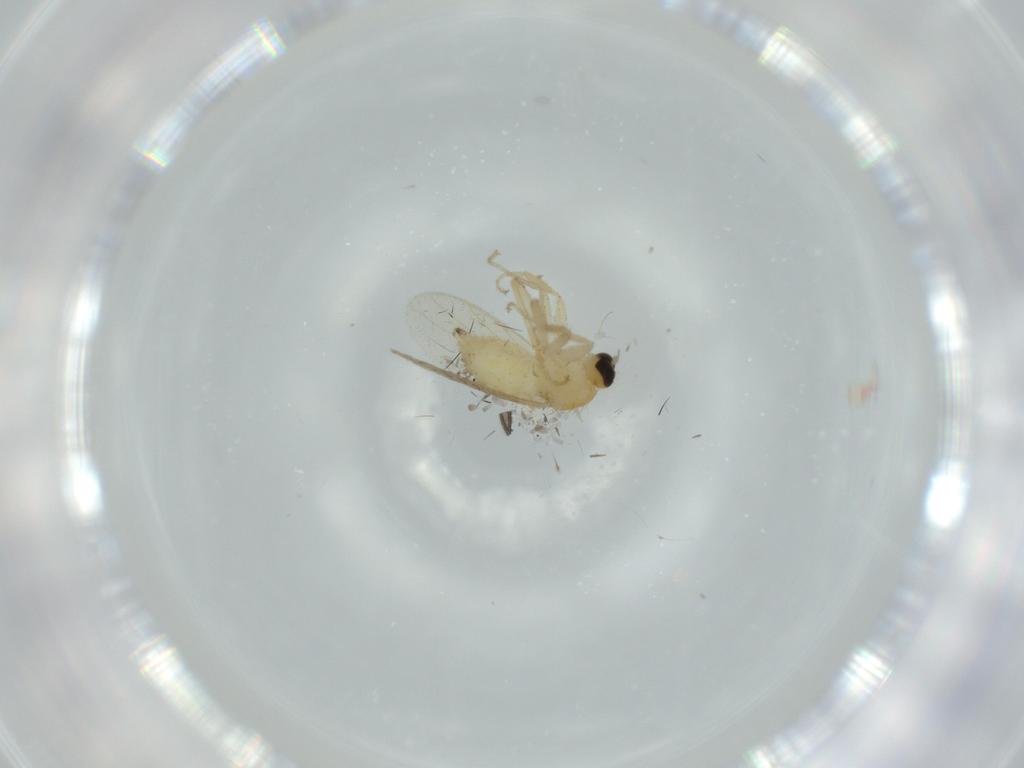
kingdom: Animalia
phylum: Arthropoda
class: Insecta
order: Diptera
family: Hybotidae
